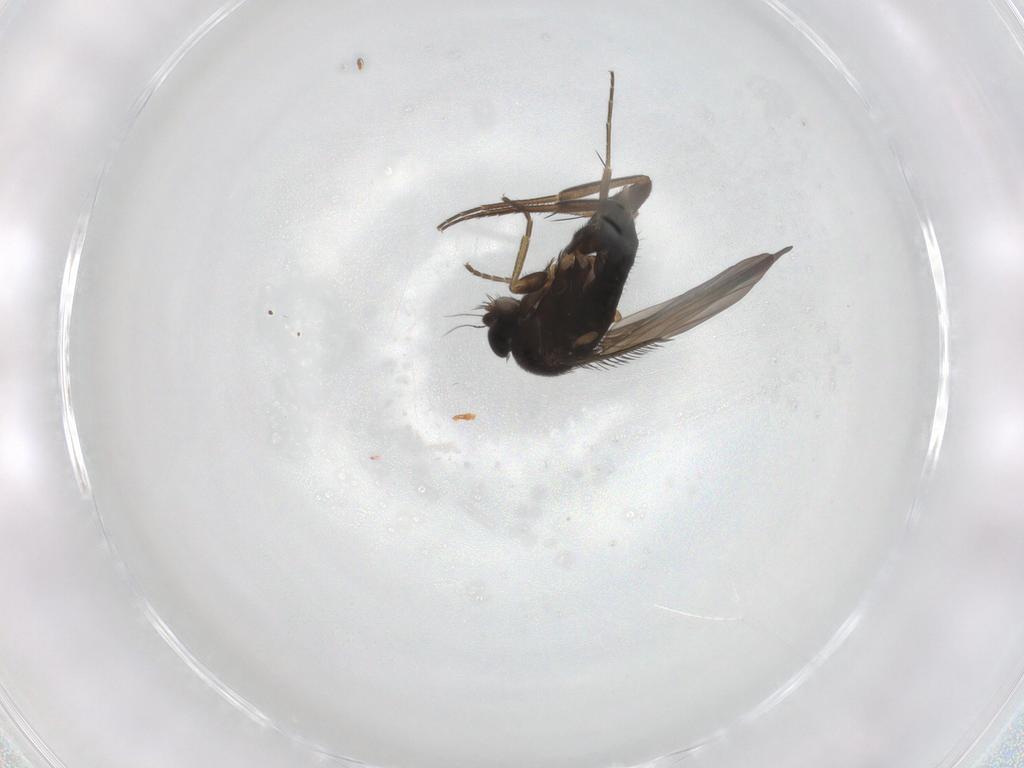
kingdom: Animalia
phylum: Arthropoda
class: Insecta
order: Diptera
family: Phoridae
